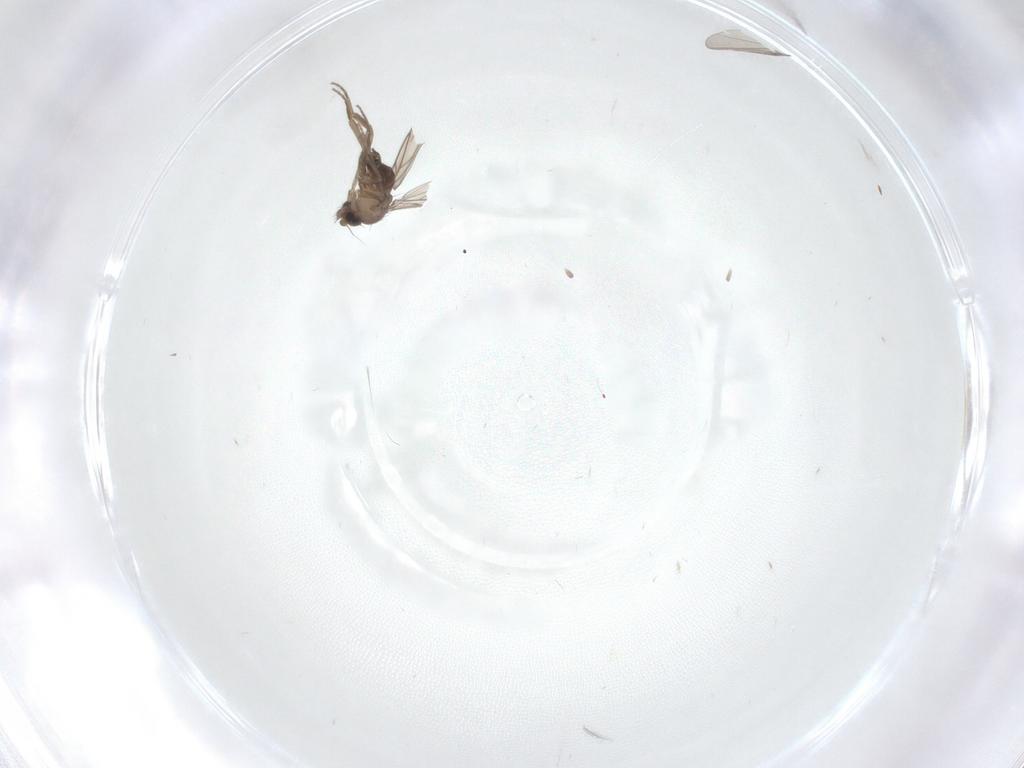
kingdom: Animalia
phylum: Arthropoda
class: Insecta
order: Diptera
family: Phoridae
